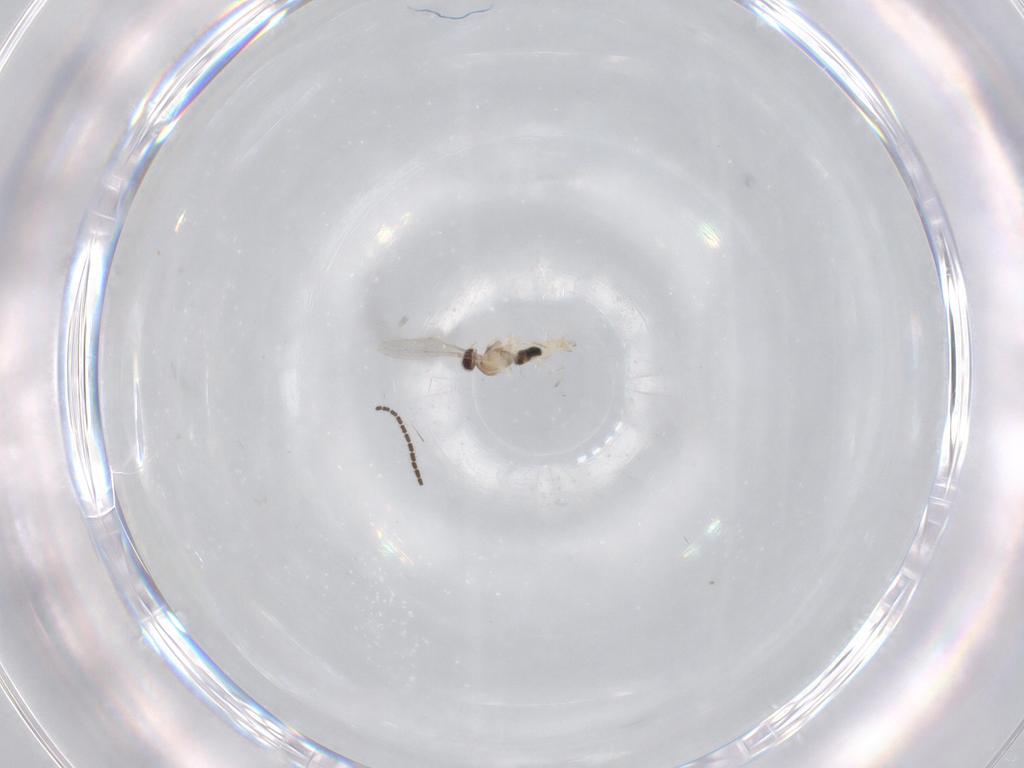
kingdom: Animalia
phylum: Arthropoda
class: Insecta
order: Diptera
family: Cecidomyiidae
